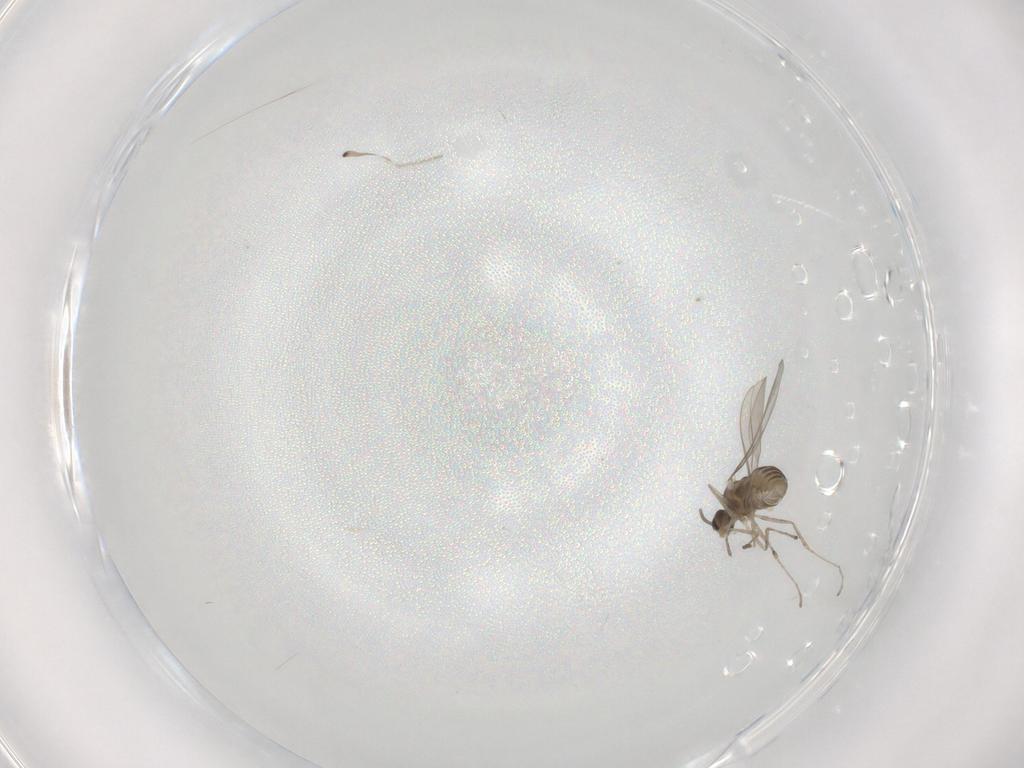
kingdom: Animalia
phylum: Arthropoda
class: Insecta
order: Diptera
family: Cecidomyiidae
